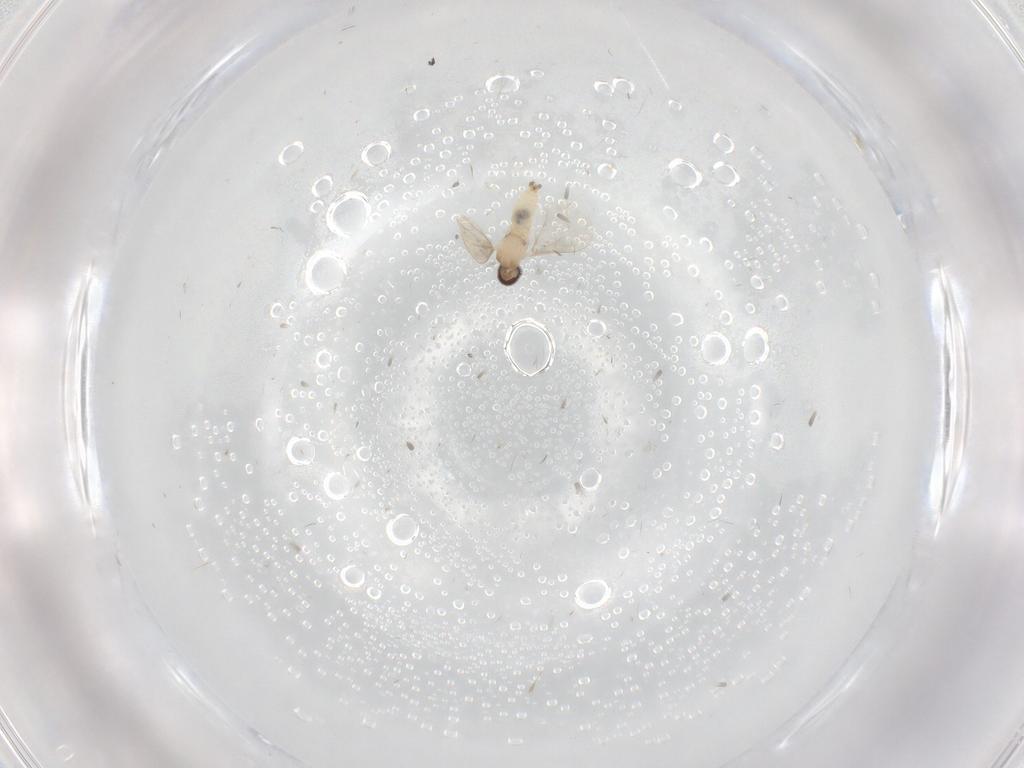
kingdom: Animalia
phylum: Arthropoda
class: Insecta
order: Diptera
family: Cecidomyiidae
